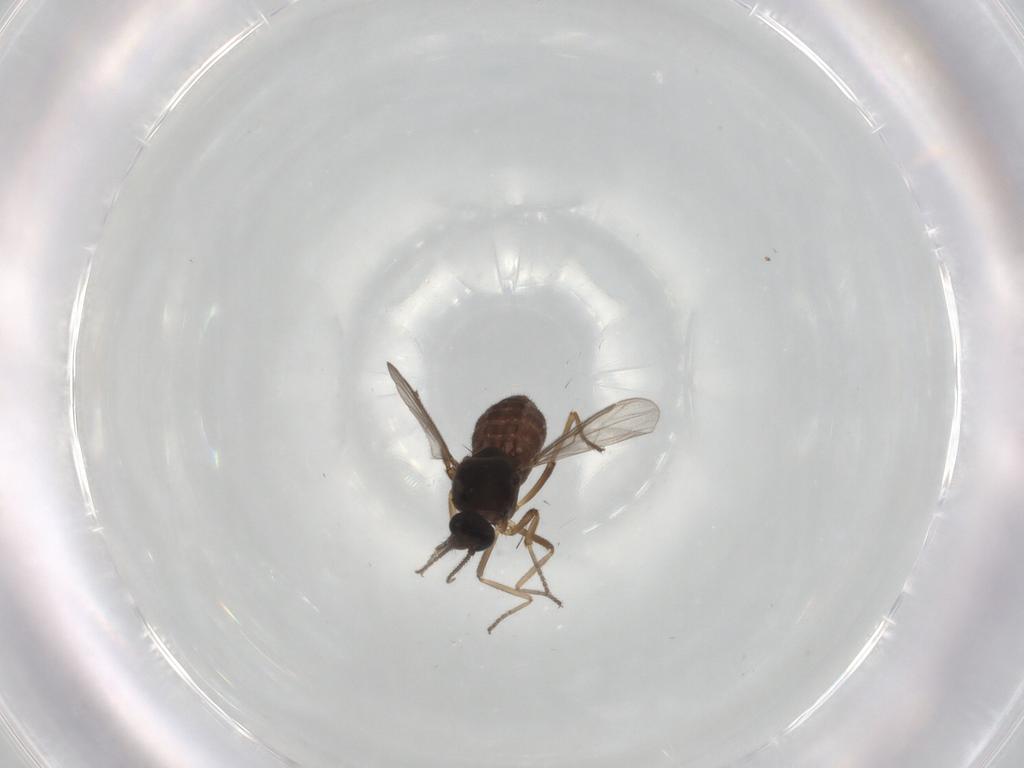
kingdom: Animalia
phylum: Arthropoda
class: Insecta
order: Diptera
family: Ceratopogonidae
